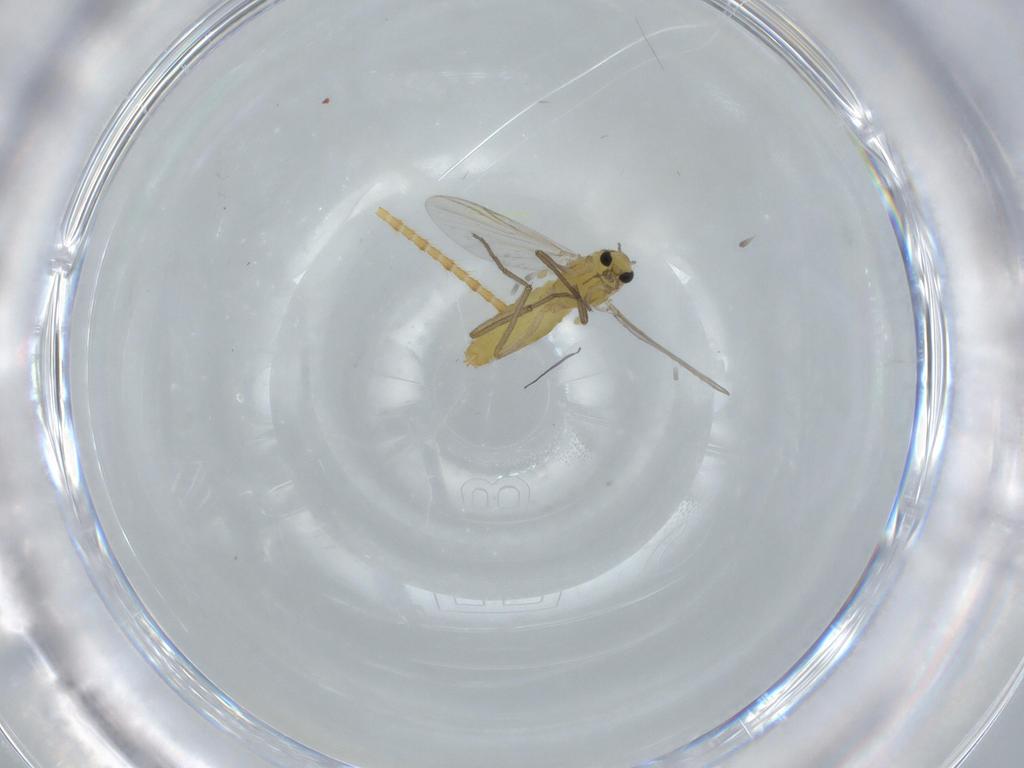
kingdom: Animalia
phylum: Arthropoda
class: Insecta
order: Diptera
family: Chironomidae
